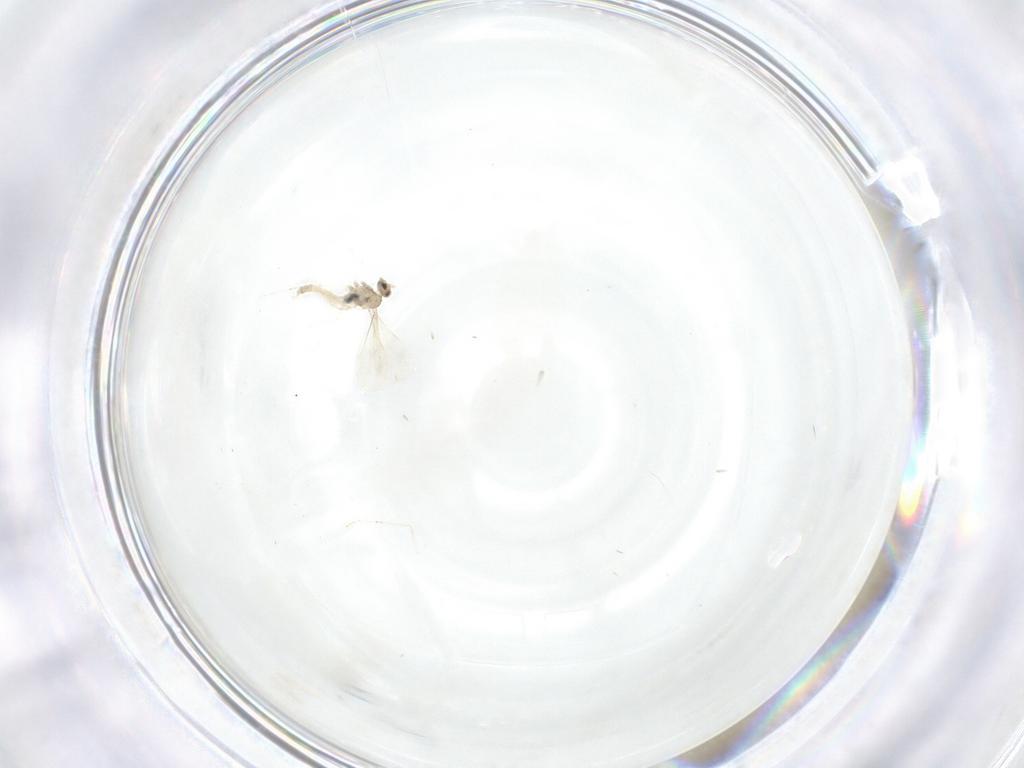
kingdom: Animalia
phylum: Arthropoda
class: Insecta
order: Diptera
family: Cecidomyiidae
